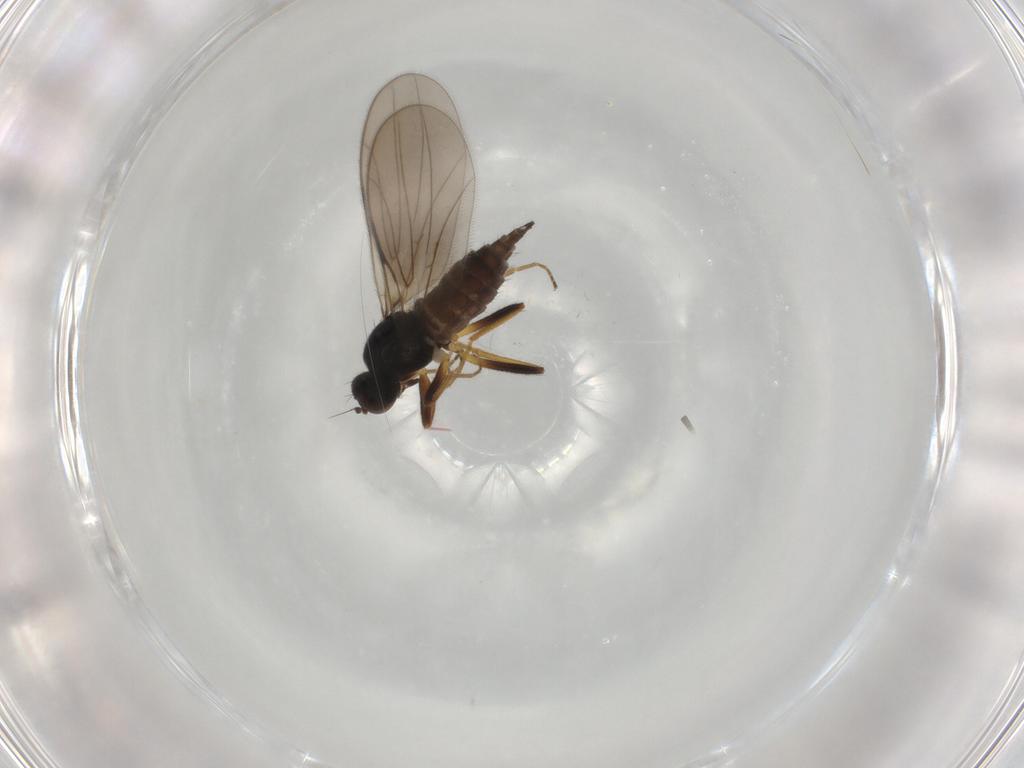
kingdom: Animalia
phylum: Arthropoda
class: Insecta
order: Diptera
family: Hybotidae
